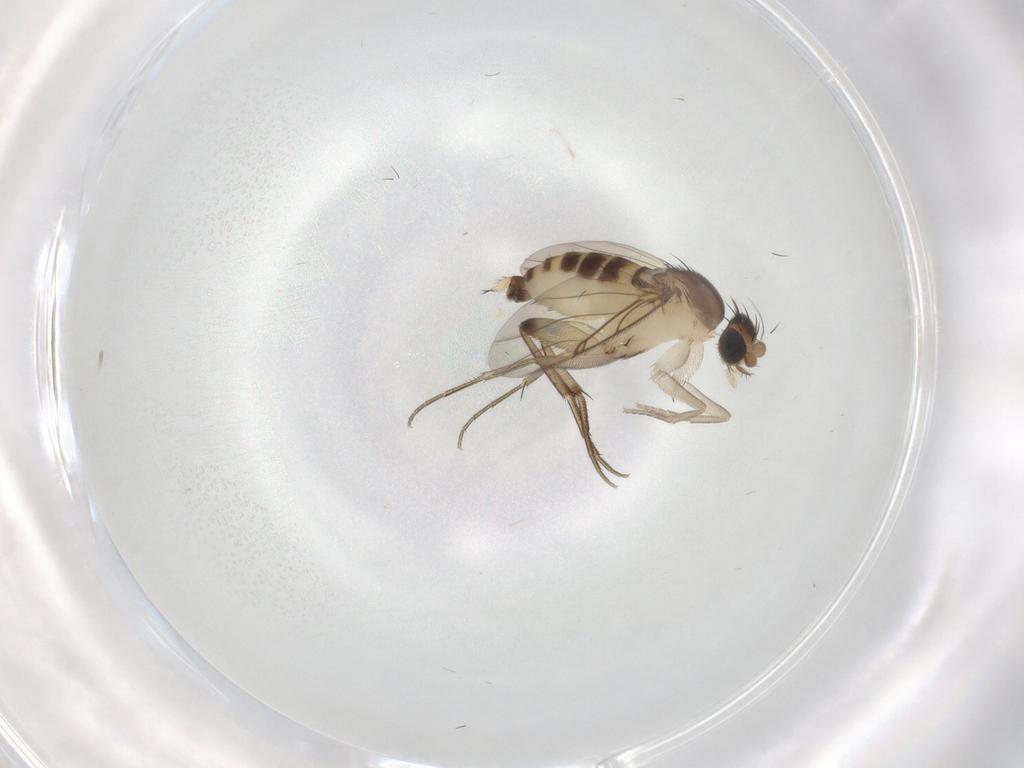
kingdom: Animalia
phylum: Arthropoda
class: Insecta
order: Diptera
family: Phoridae
